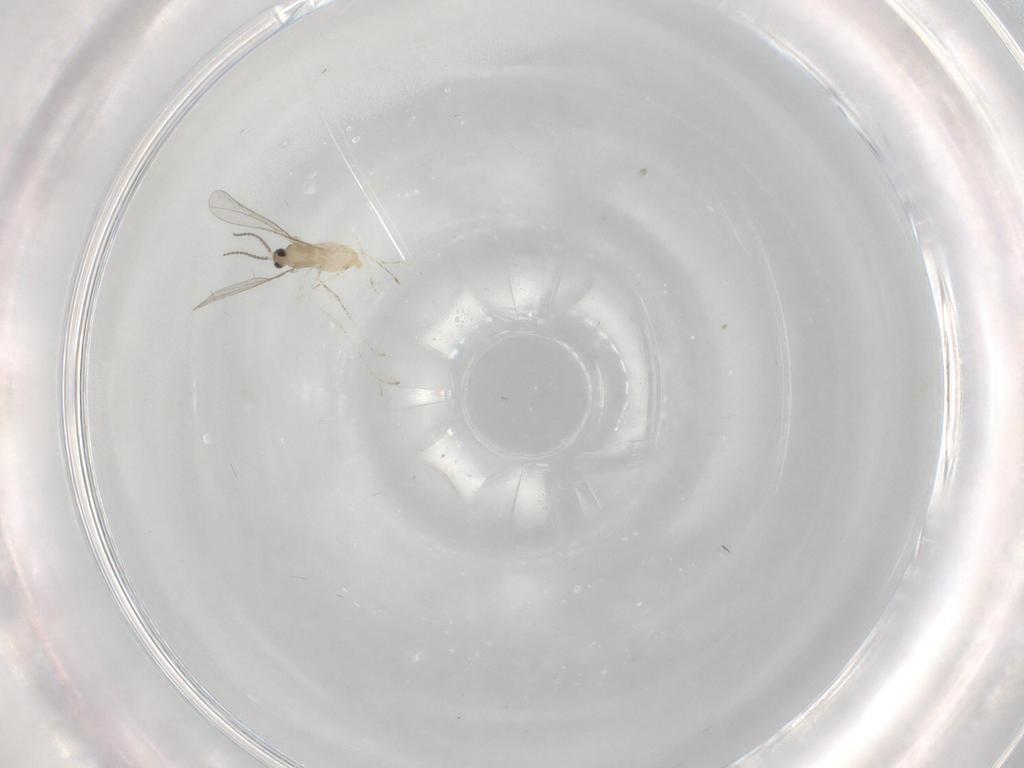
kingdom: Animalia
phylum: Arthropoda
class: Insecta
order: Diptera
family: Cecidomyiidae
